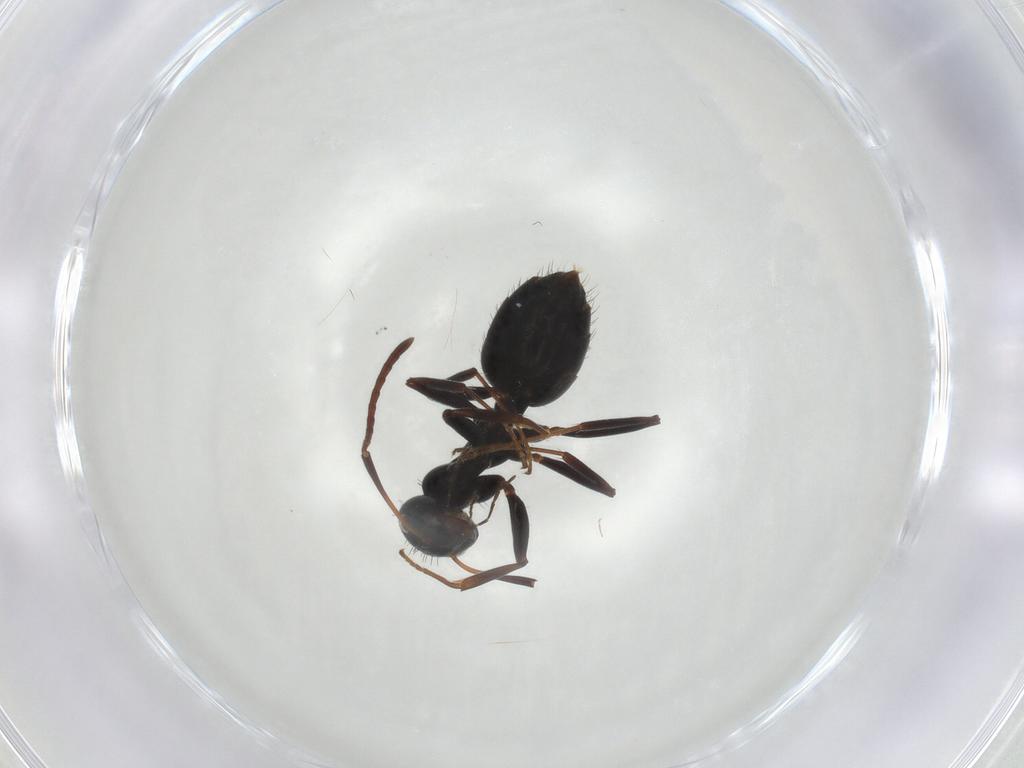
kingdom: Animalia
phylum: Arthropoda
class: Insecta
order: Hymenoptera
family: Formicidae
